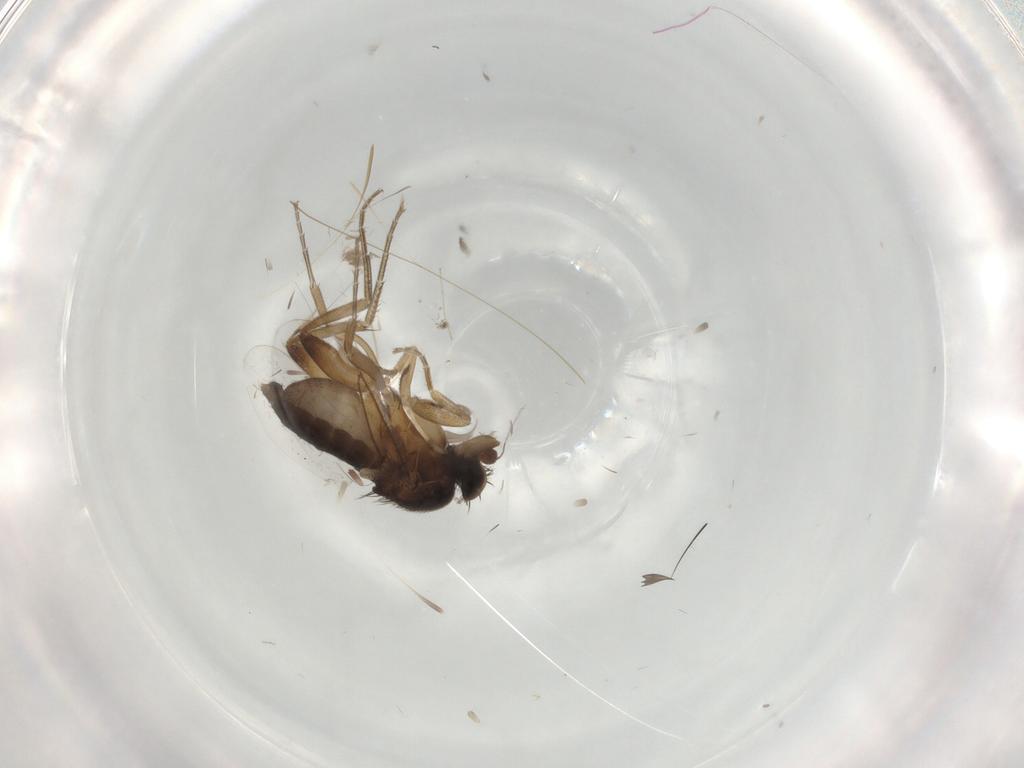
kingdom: Animalia
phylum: Arthropoda
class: Insecta
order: Diptera
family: Phoridae
